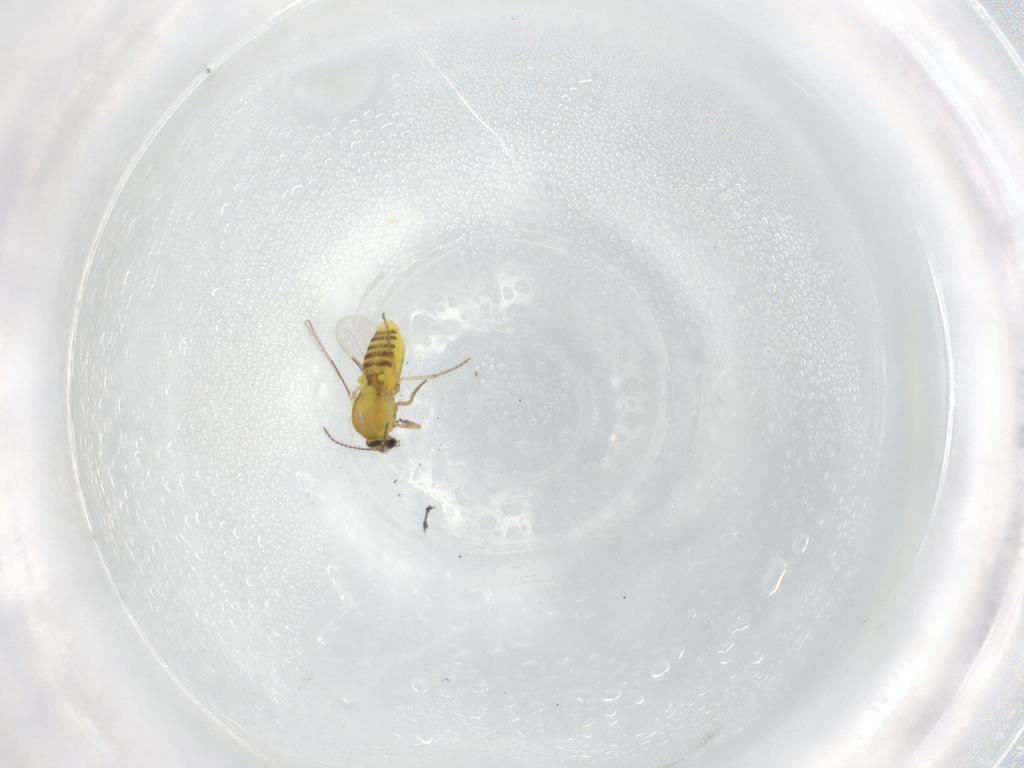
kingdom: Animalia
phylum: Arthropoda
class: Insecta
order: Diptera
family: Ceratopogonidae
